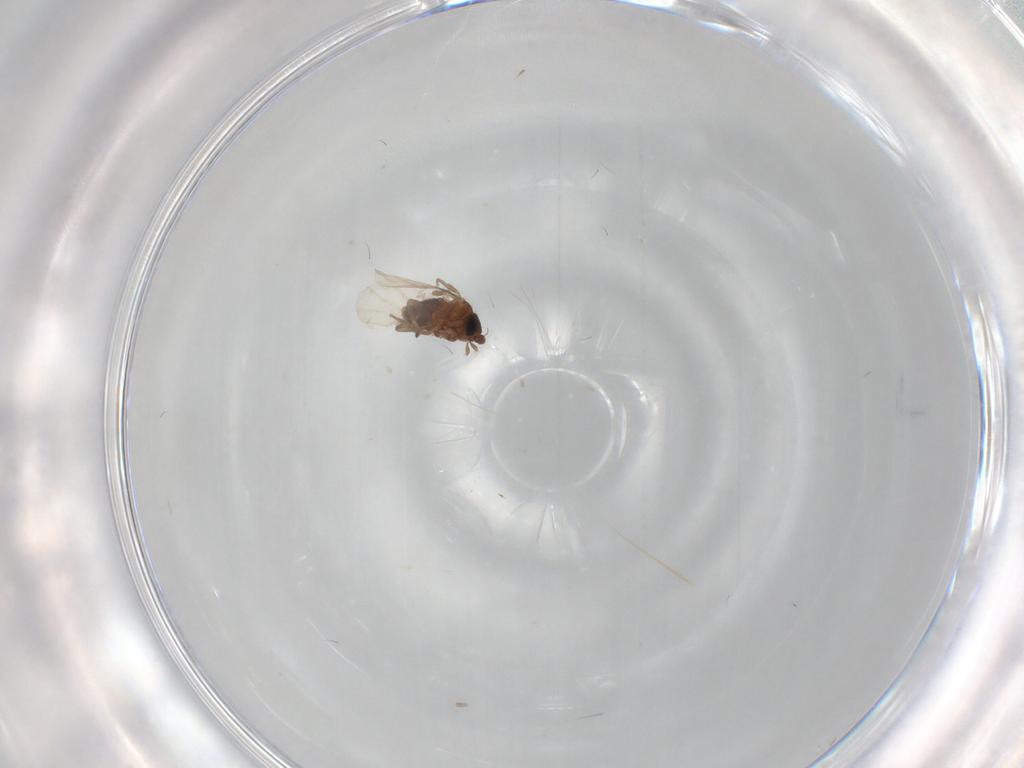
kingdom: Animalia
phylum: Arthropoda
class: Insecta
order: Diptera
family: Phoridae
